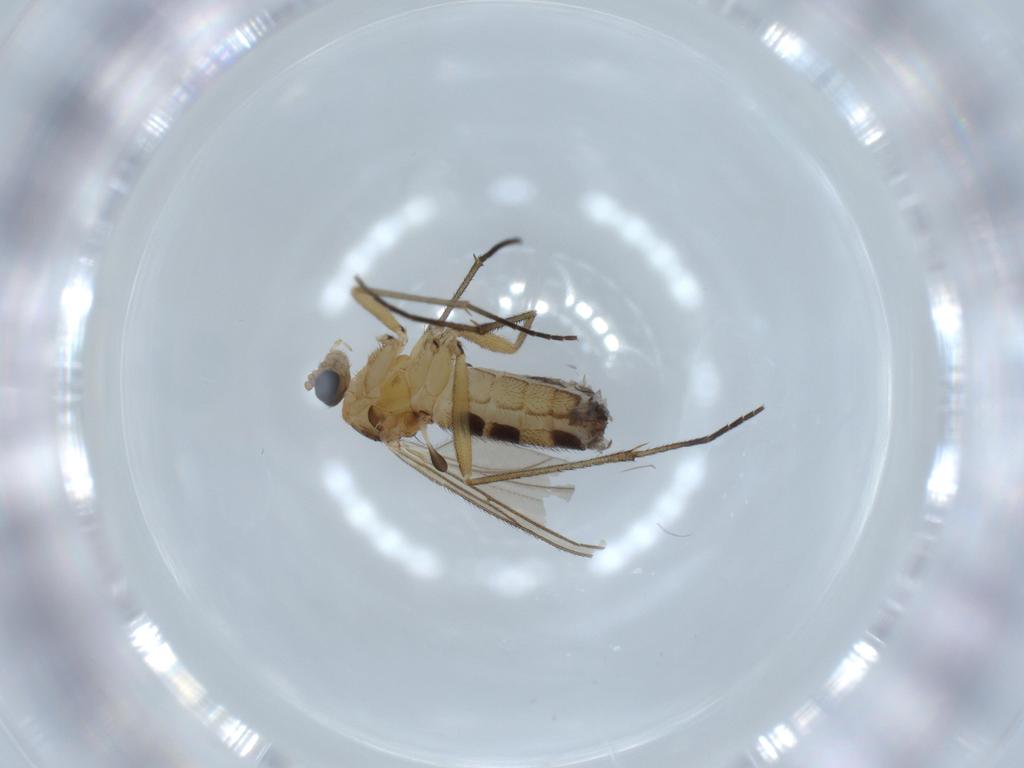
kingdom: Animalia
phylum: Arthropoda
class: Insecta
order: Diptera
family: Sciaridae
